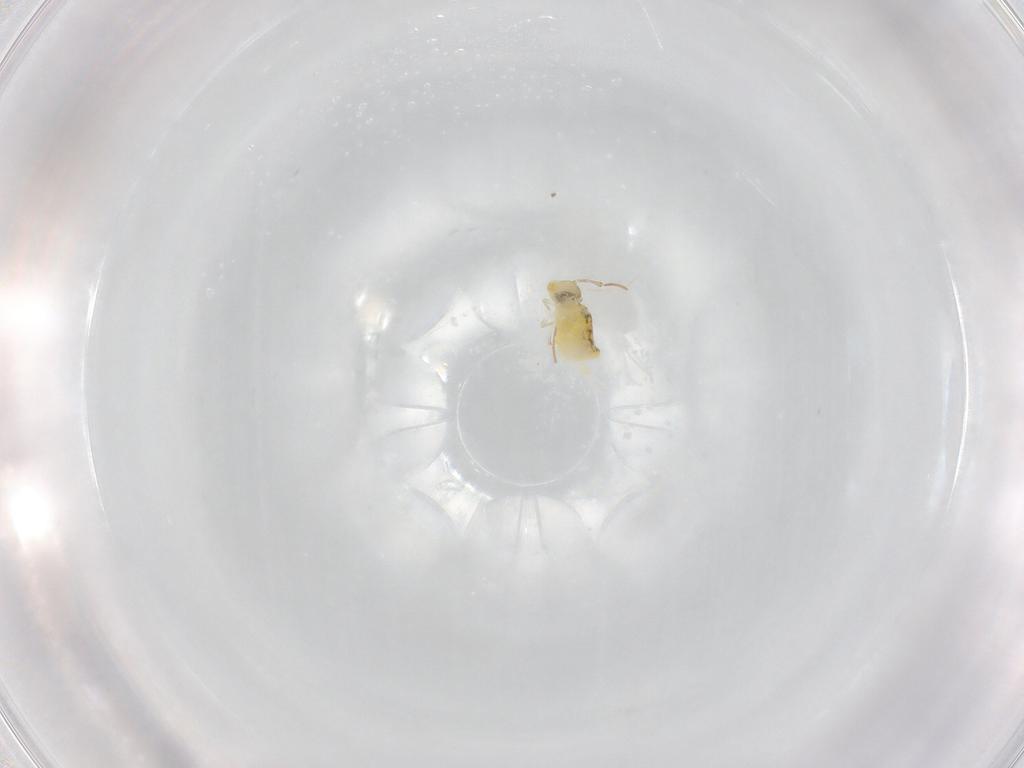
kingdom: Animalia
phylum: Arthropoda
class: Collembola
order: Symphypleona
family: Bourletiellidae
